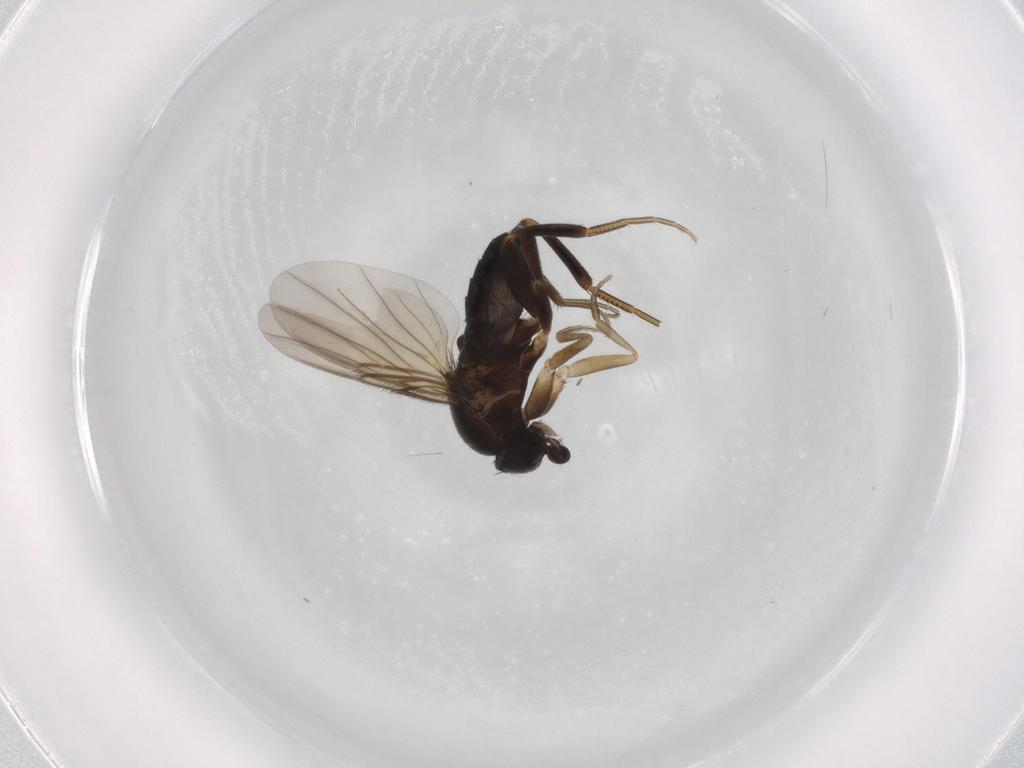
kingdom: Animalia
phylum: Arthropoda
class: Insecta
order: Diptera
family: Phoridae
